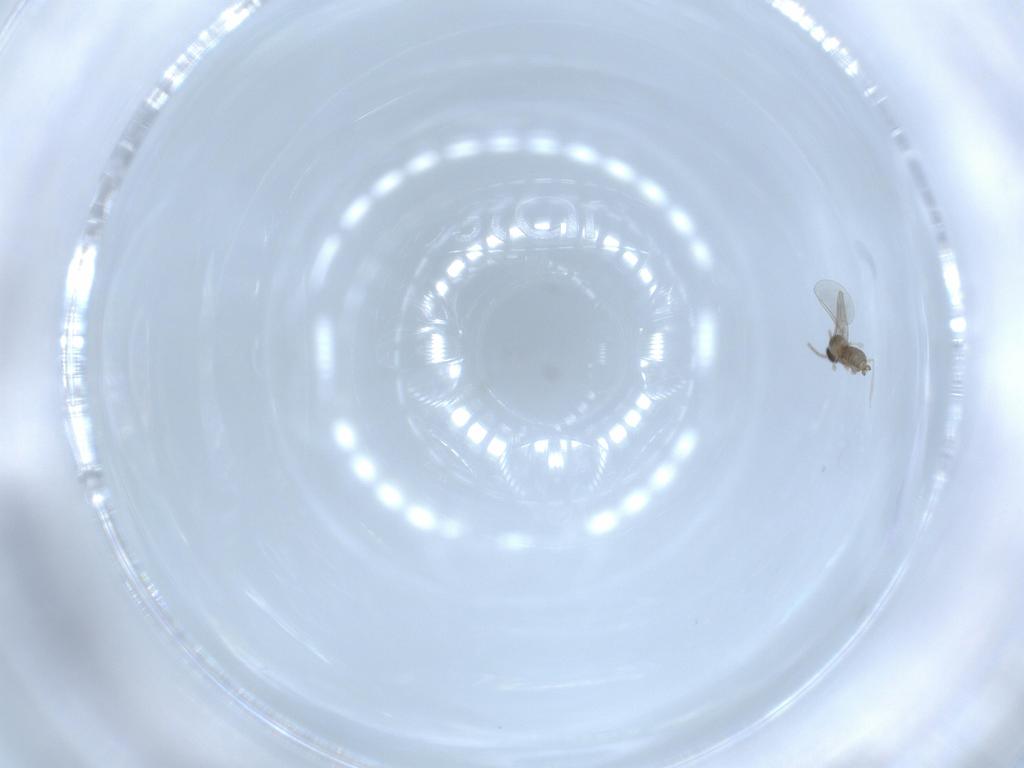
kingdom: Animalia
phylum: Arthropoda
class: Insecta
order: Diptera
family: Cecidomyiidae
